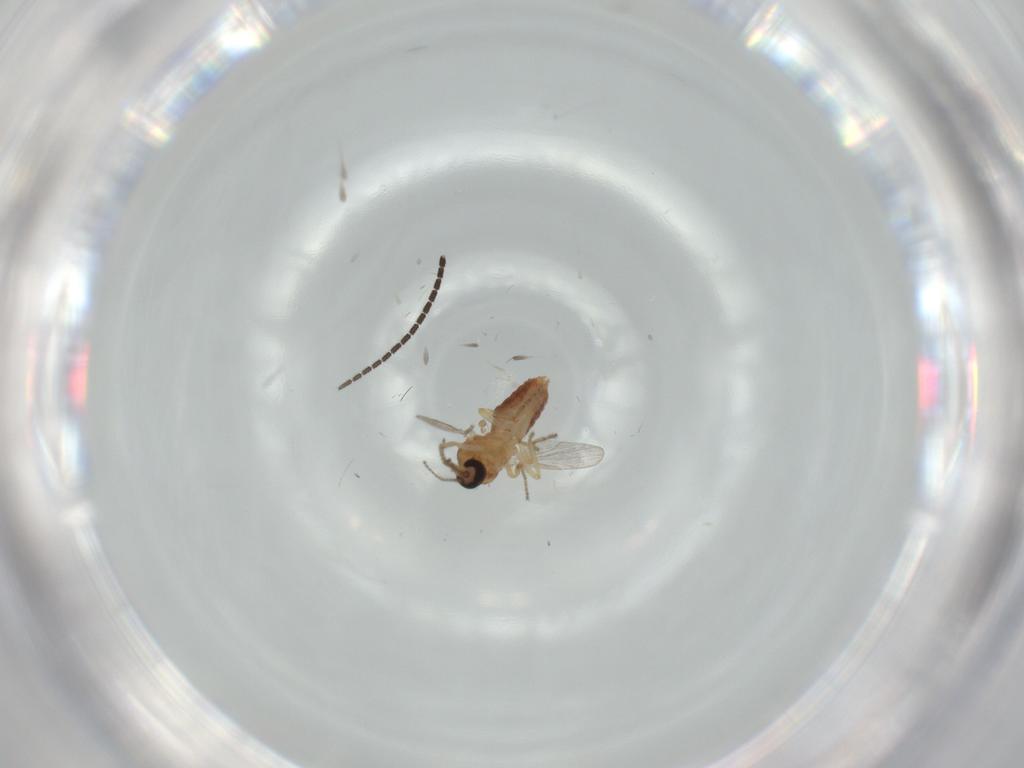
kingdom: Animalia
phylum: Arthropoda
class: Insecta
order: Diptera
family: Ceratopogonidae
